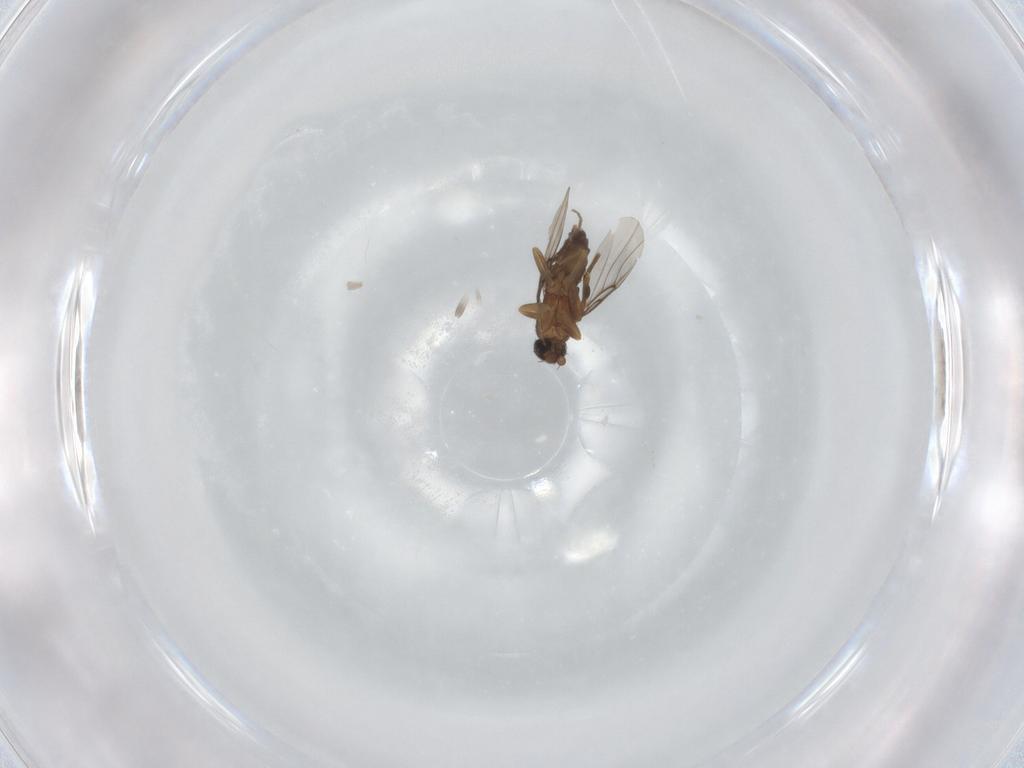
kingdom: Animalia
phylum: Arthropoda
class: Insecta
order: Diptera
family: Phoridae
